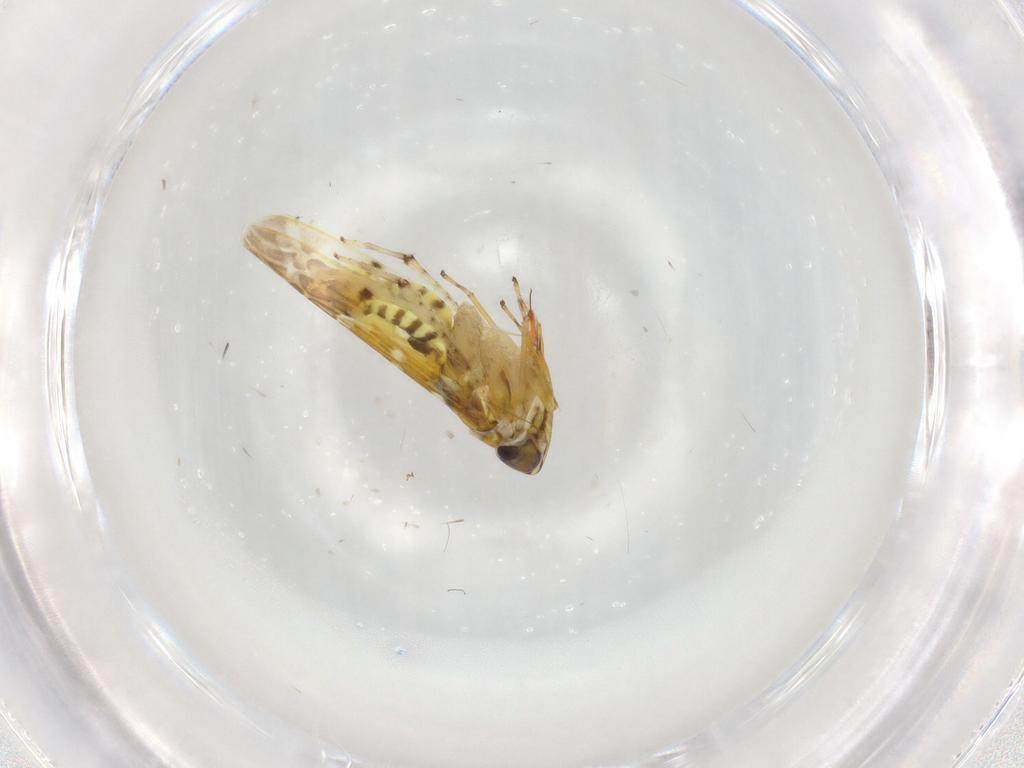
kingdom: Animalia
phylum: Arthropoda
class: Insecta
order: Hemiptera
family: Cicadellidae
